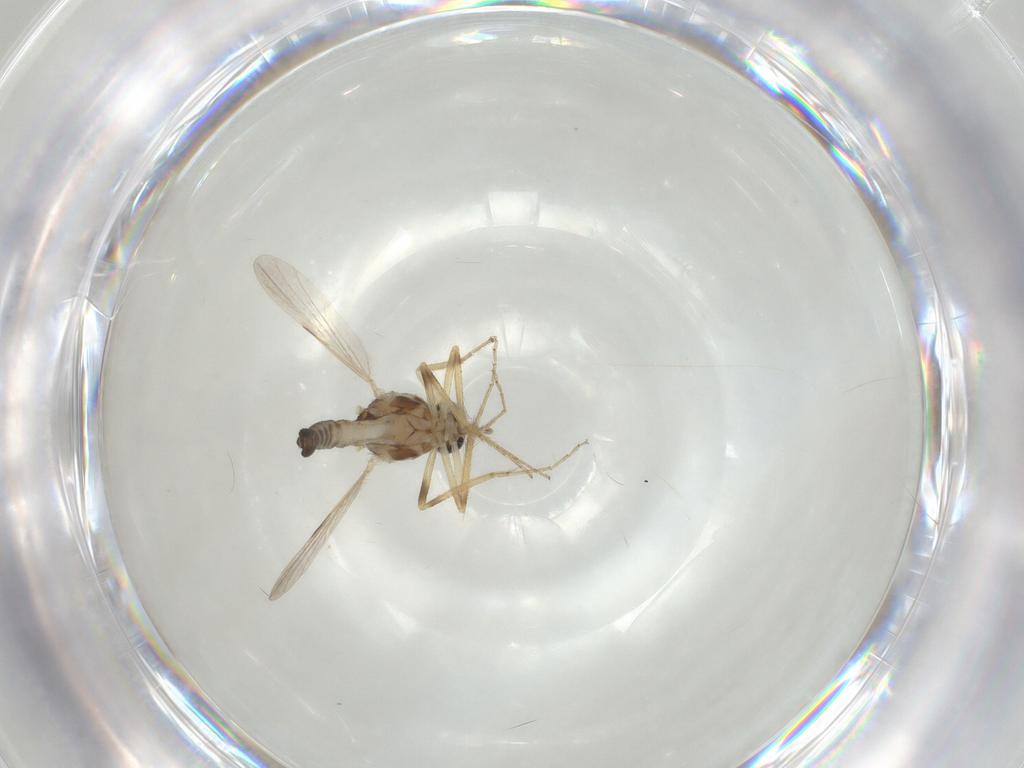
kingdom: Animalia
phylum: Arthropoda
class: Insecta
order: Diptera
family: Ceratopogonidae
